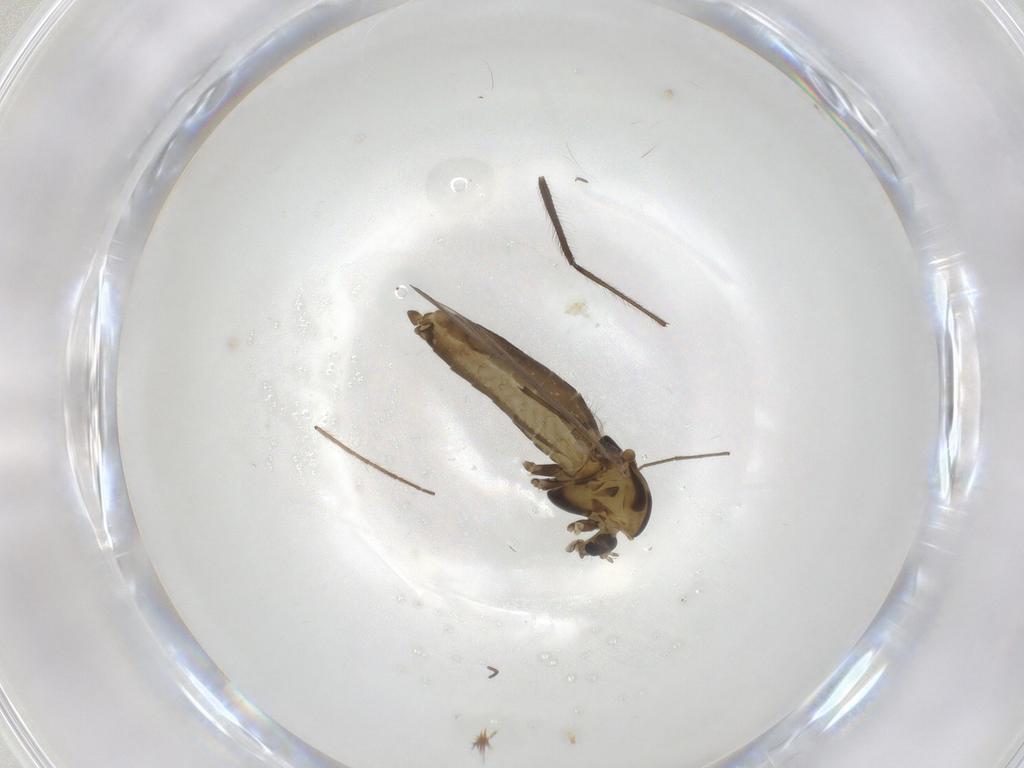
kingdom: Animalia
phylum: Arthropoda
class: Insecta
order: Diptera
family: Chironomidae
